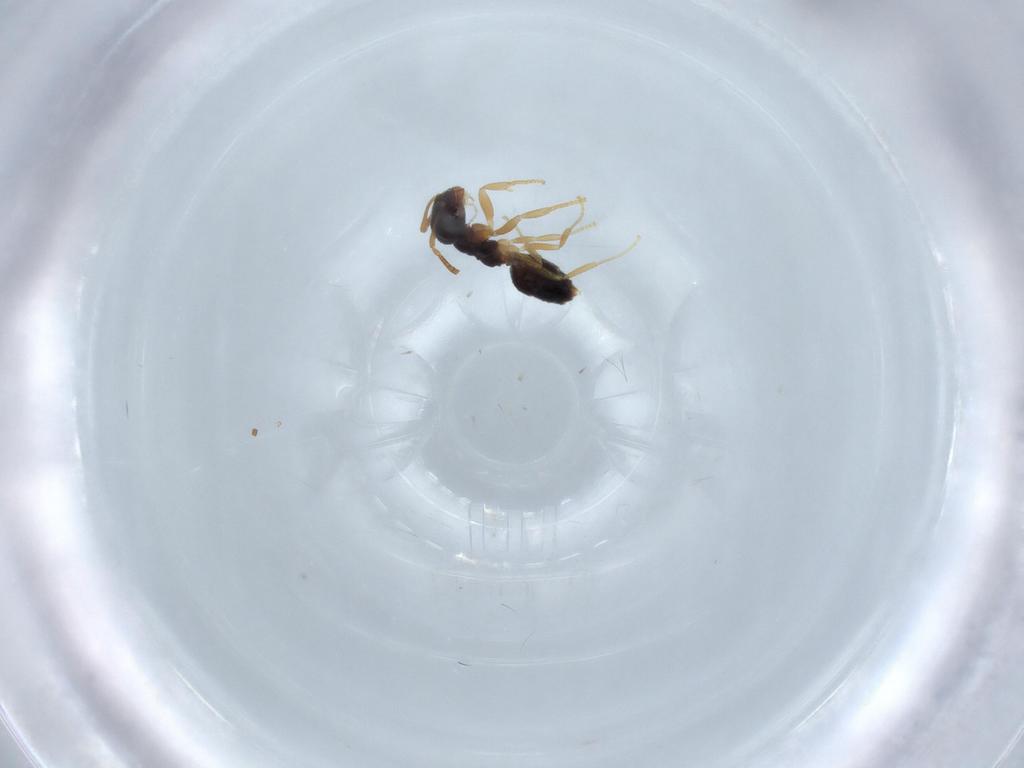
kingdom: Animalia
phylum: Arthropoda
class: Insecta
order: Hymenoptera
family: Formicidae
